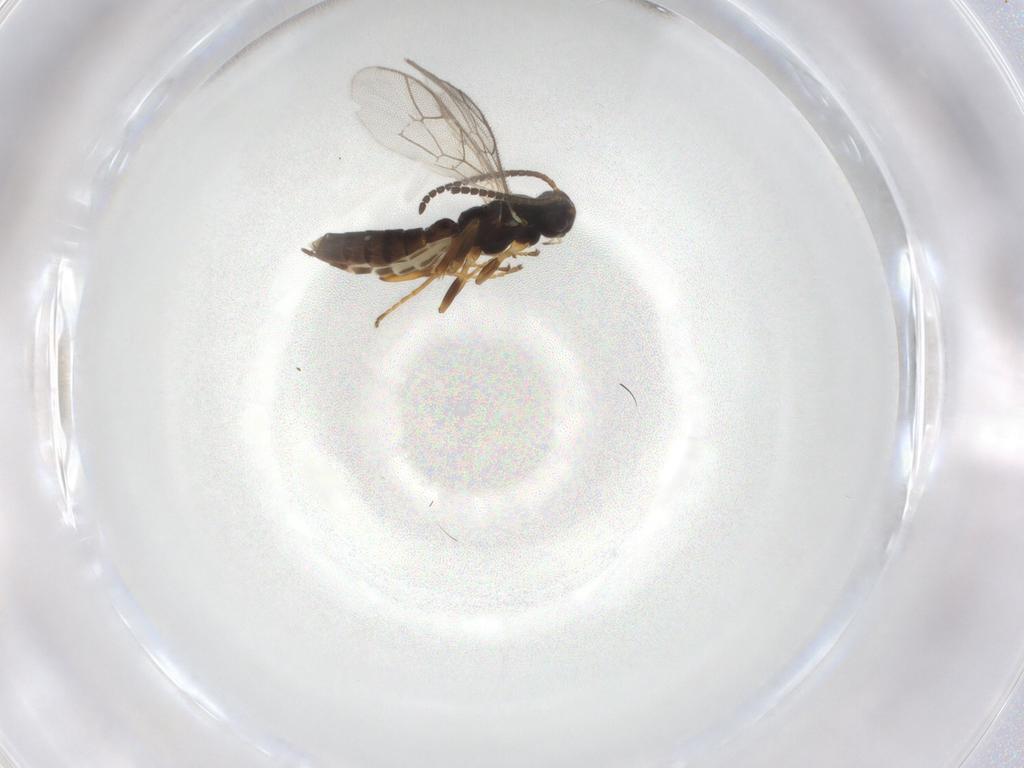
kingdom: Animalia
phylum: Arthropoda
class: Insecta
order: Hymenoptera
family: Ichneumonidae
